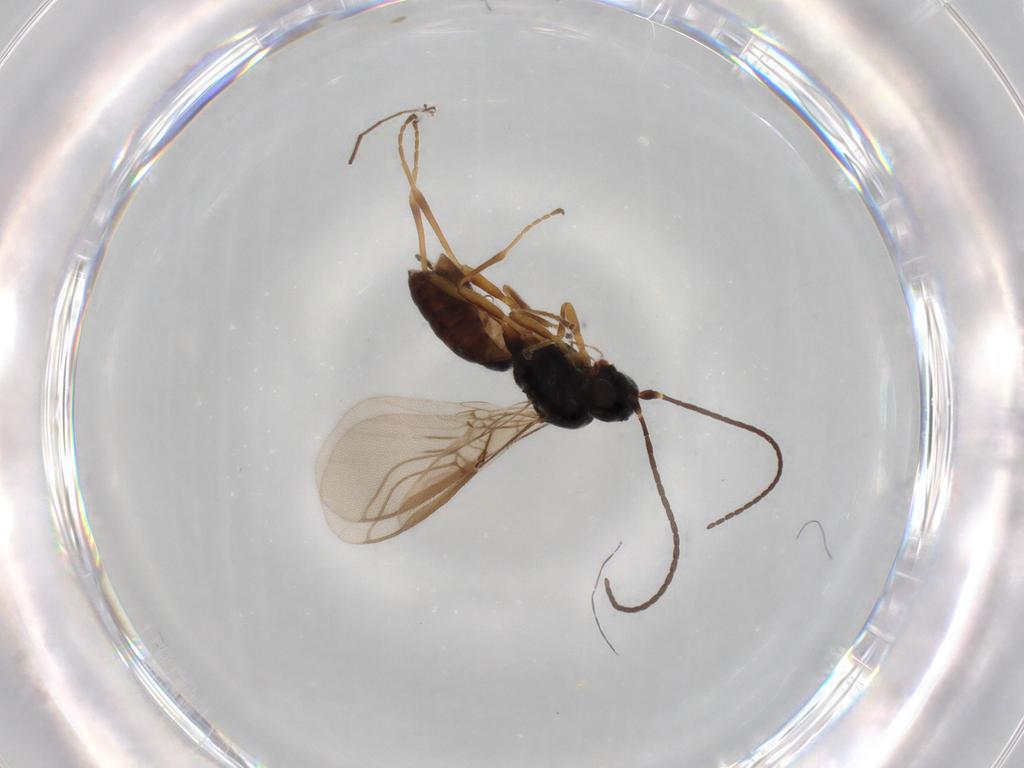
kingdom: Animalia
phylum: Arthropoda
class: Insecta
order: Hymenoptera
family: Braconidae
